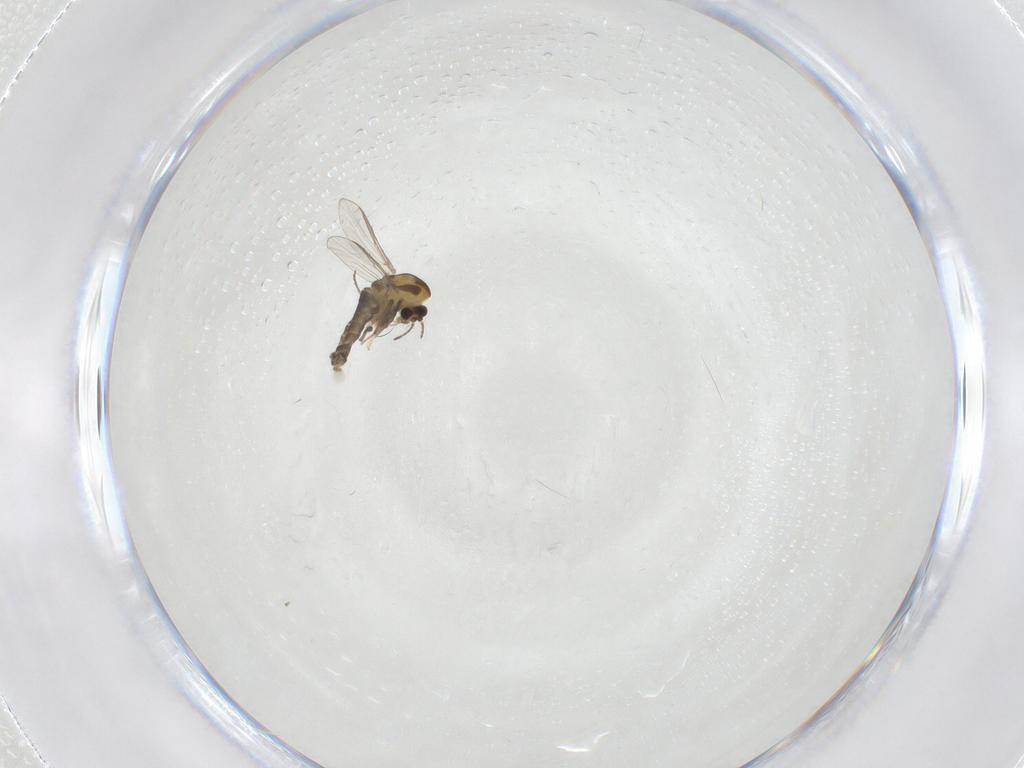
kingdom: Animalia
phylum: Arthropoda
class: Insecta
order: Diptera
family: Chironomidae
